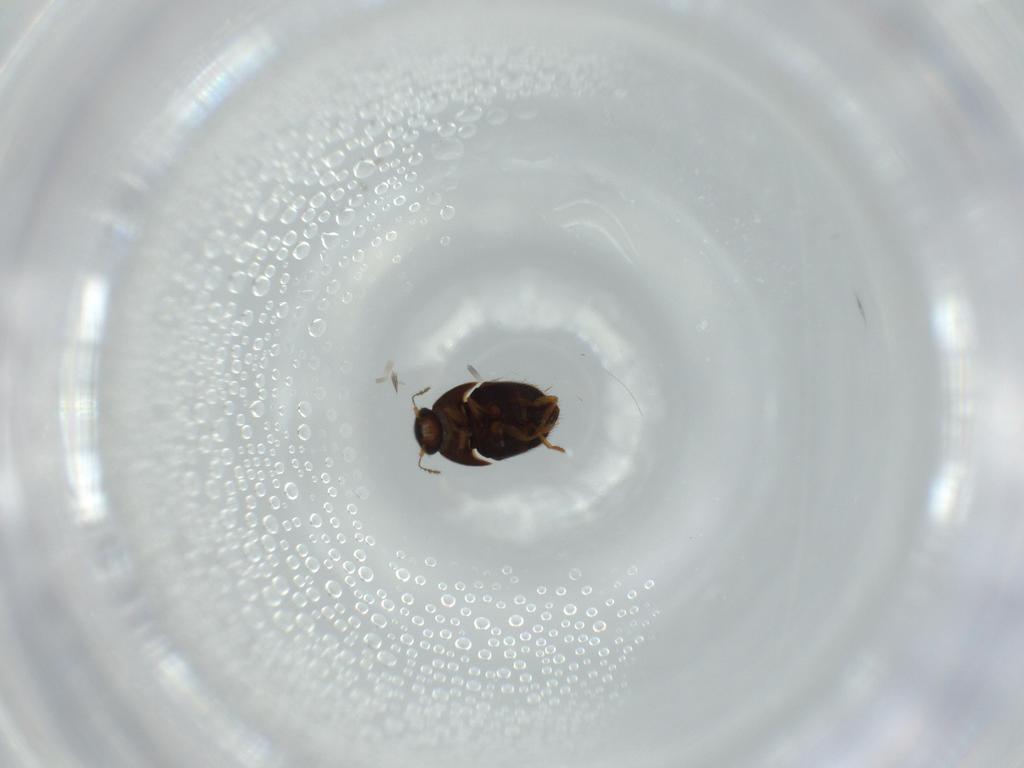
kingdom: Animalia
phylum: Arthropoda
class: Insecta
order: Coleoptera
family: Ptiliidae
